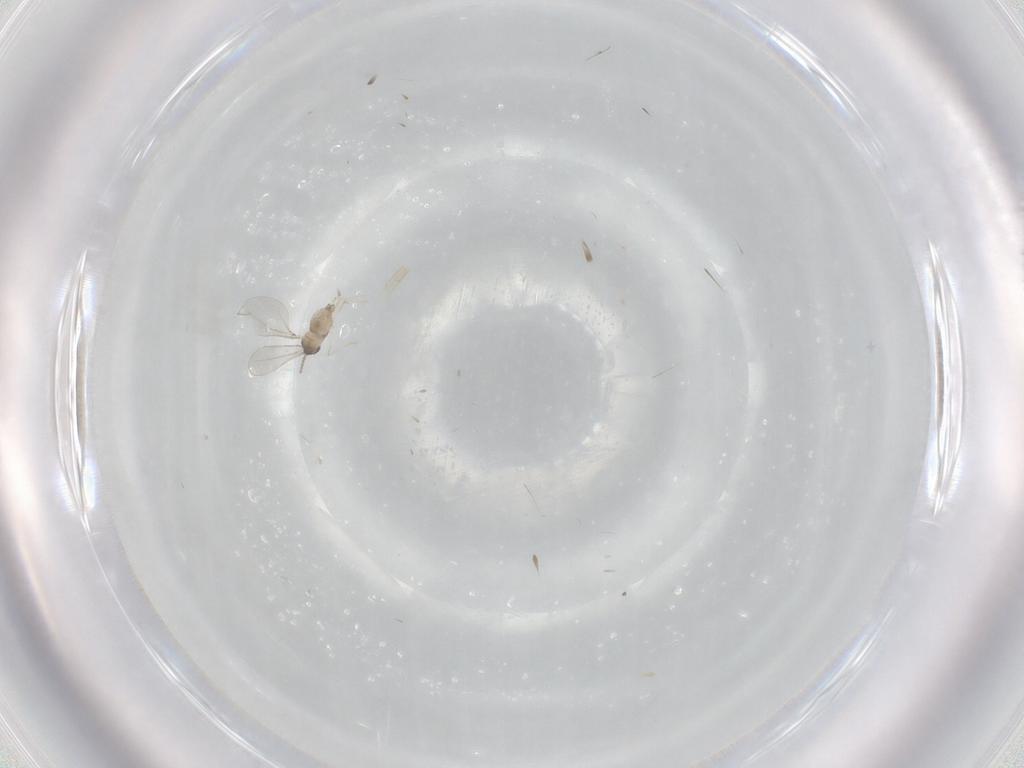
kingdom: Animalia
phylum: Arthropoda
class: Insecta
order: Diptera
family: Cecidomyiidae
